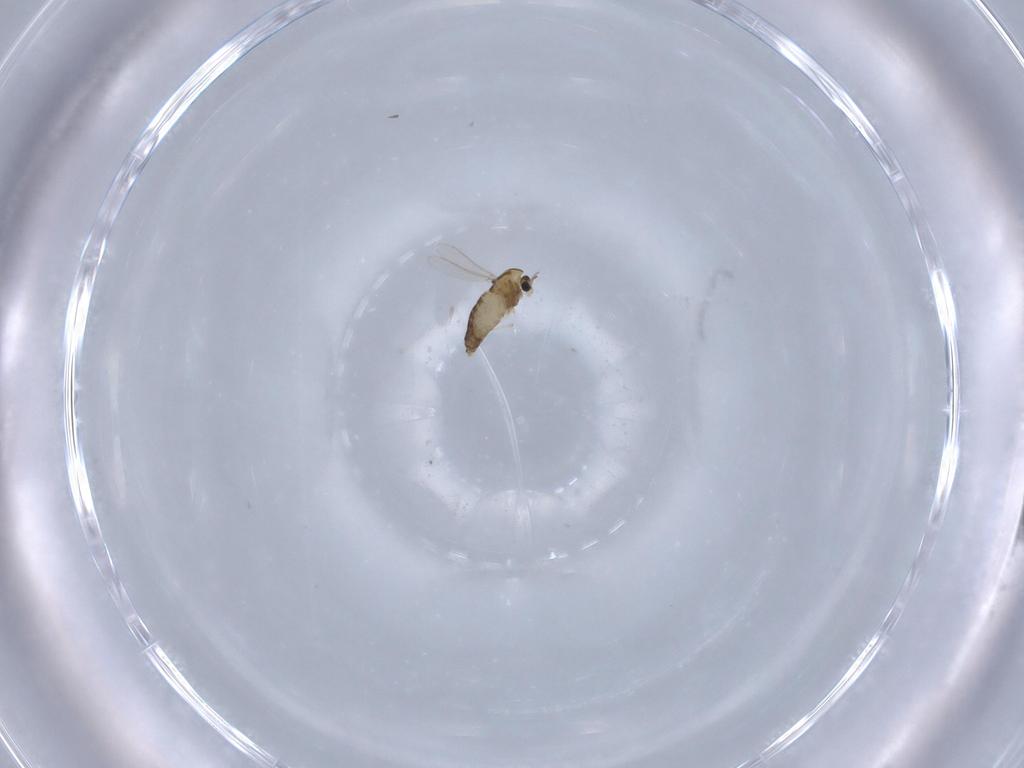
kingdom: Animalia
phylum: Arthropoda
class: Insecta
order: Diptera
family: Chironomidae
